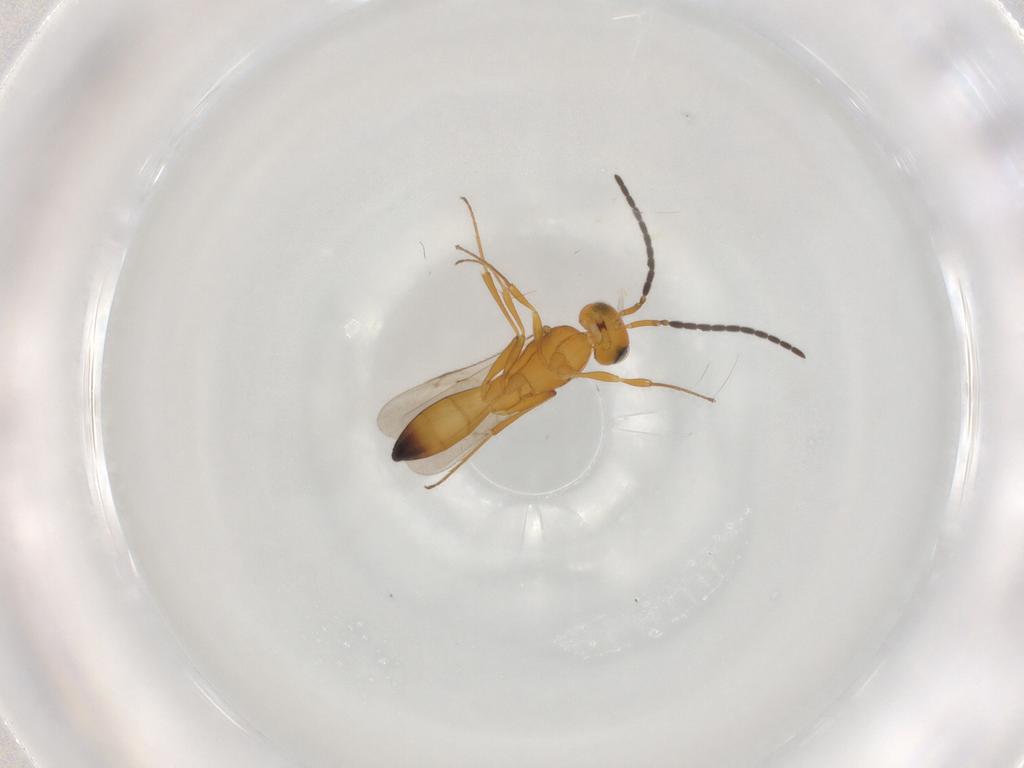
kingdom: Animalia
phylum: Arthropoda
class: Insecta
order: Hymenoptera
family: Scelionidae
